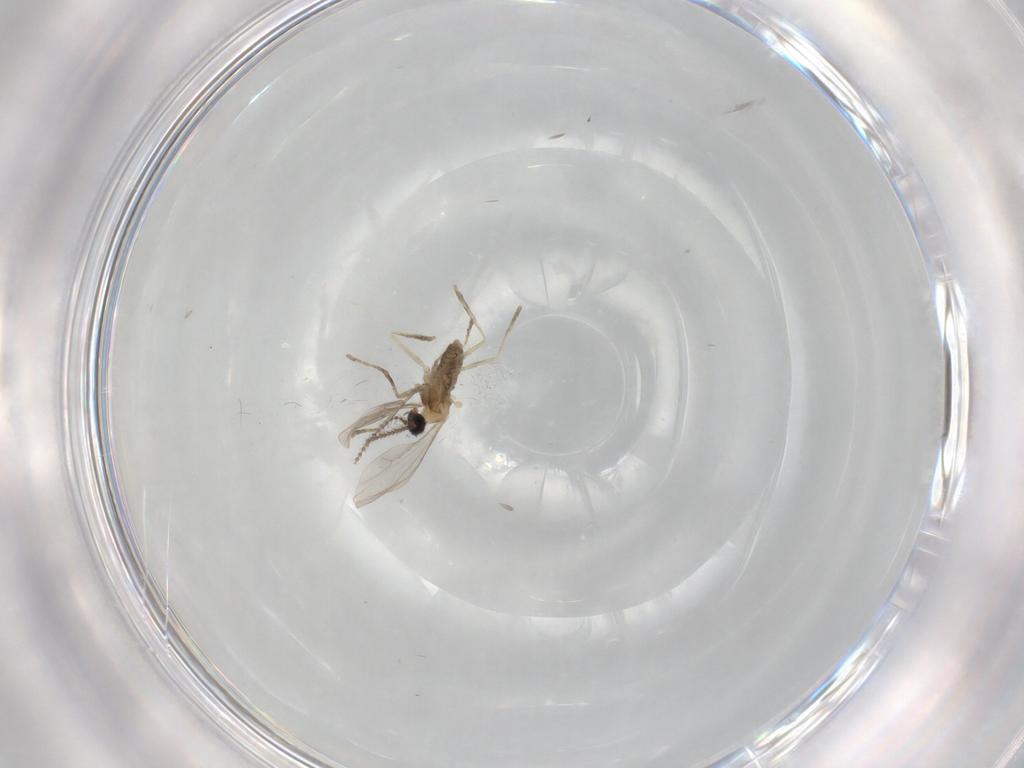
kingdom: Animalia
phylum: Arthropoda
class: Insecta
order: Diptera
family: Cecidomyiidae
